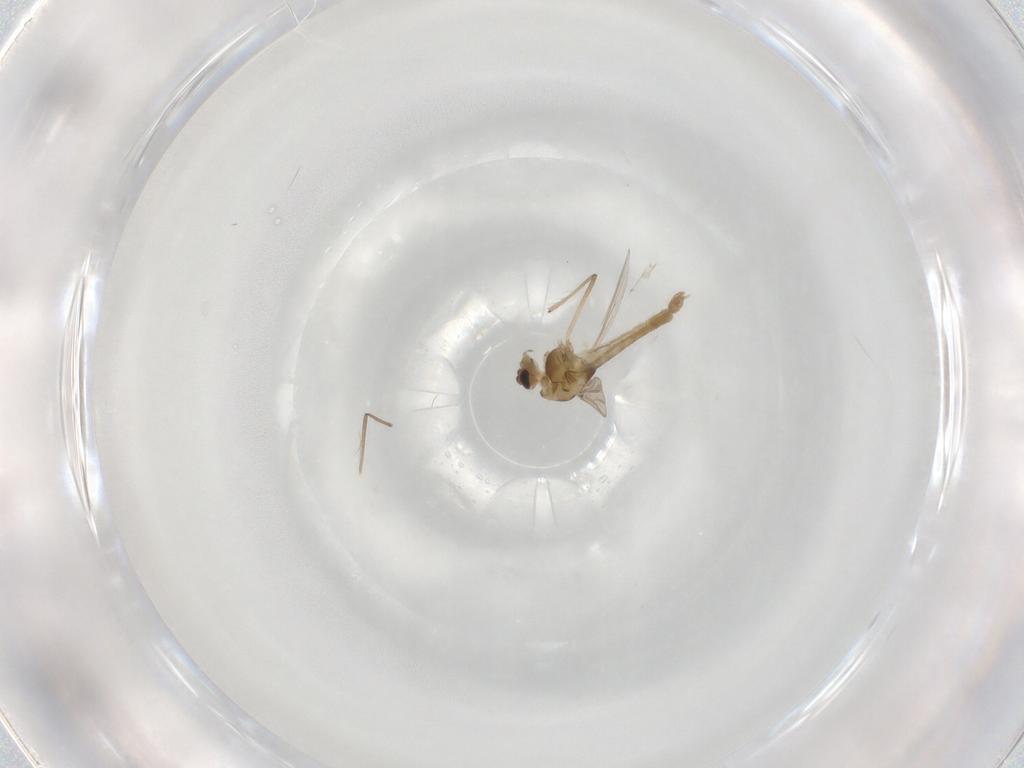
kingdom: Animalia
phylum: Arthropoda
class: Insecta
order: Diptera
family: Chironomidae
